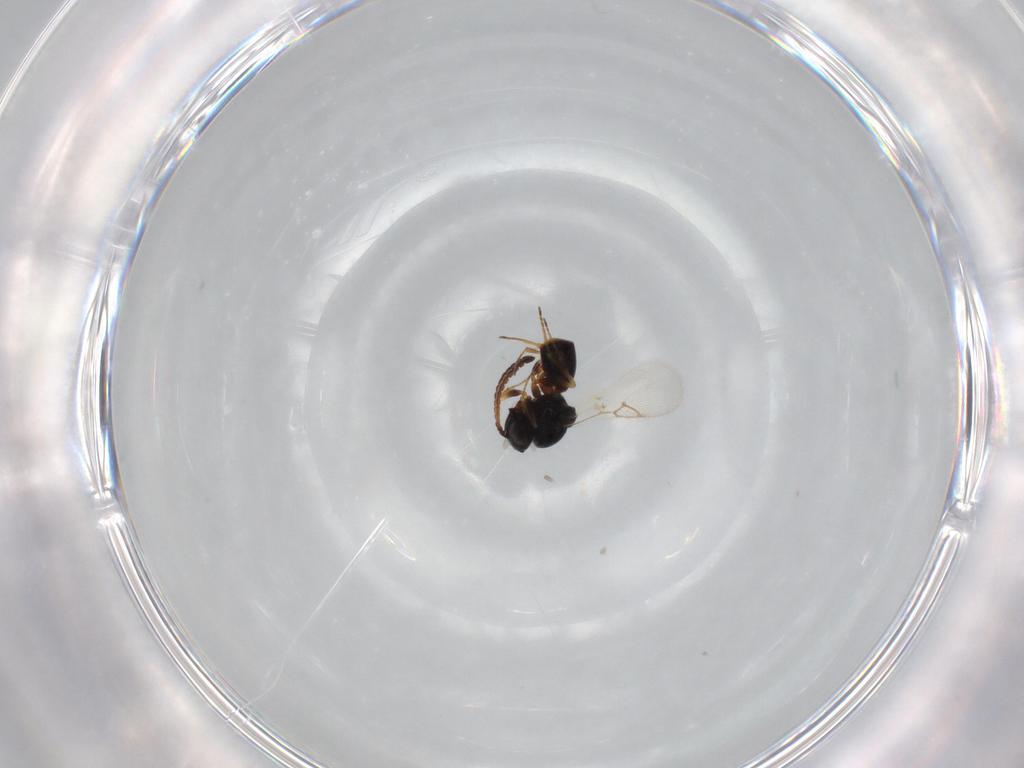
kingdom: Animalia
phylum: Arthropoda
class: Insecta
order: Hymenoptera
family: Figitidae
